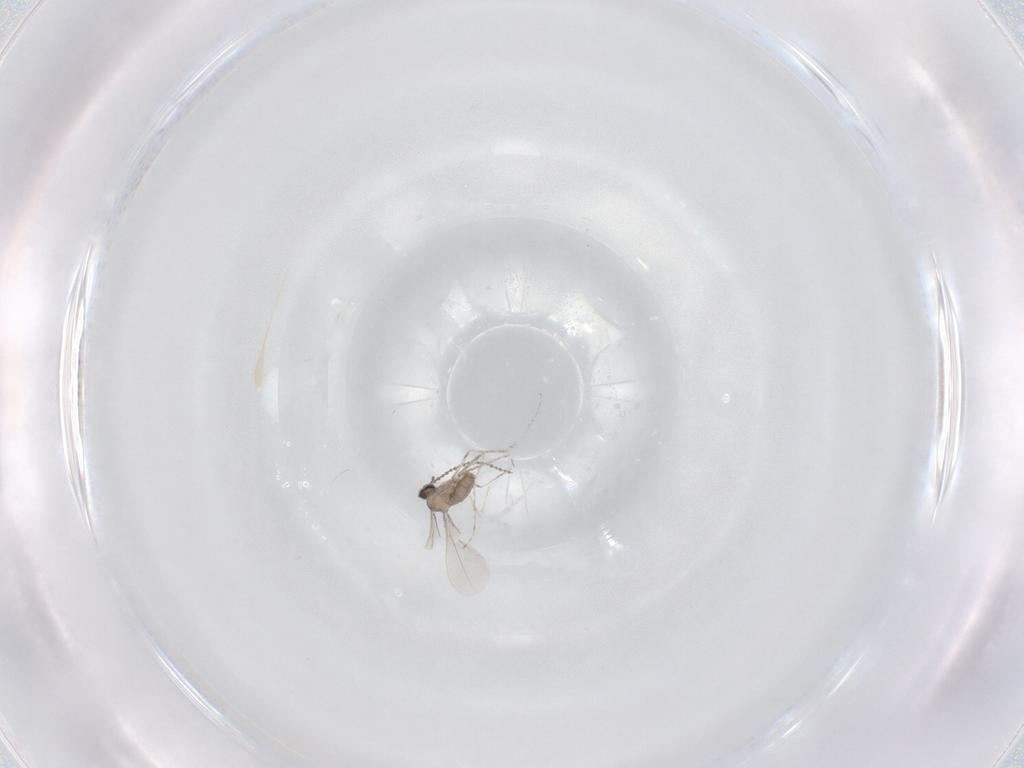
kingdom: Animalia
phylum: Arthropoda
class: Insecta
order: Diptera
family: Cecidomyiidae
